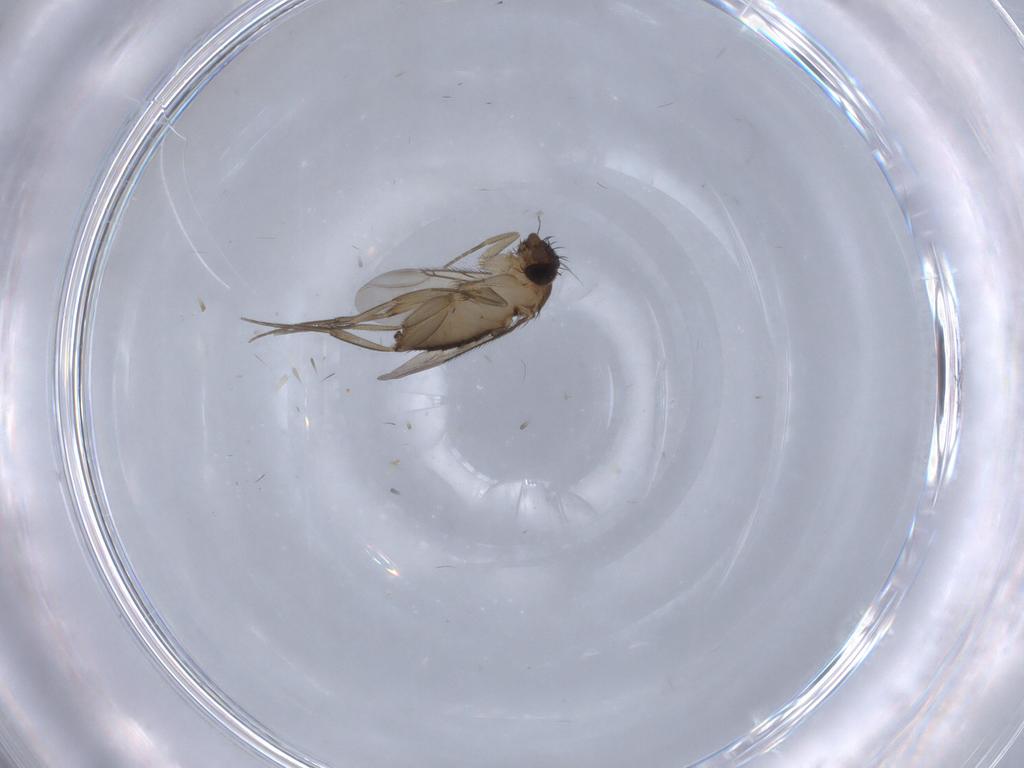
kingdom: Animalia
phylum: Arthropoda
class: Insecta
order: Diptera
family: Phoridae
